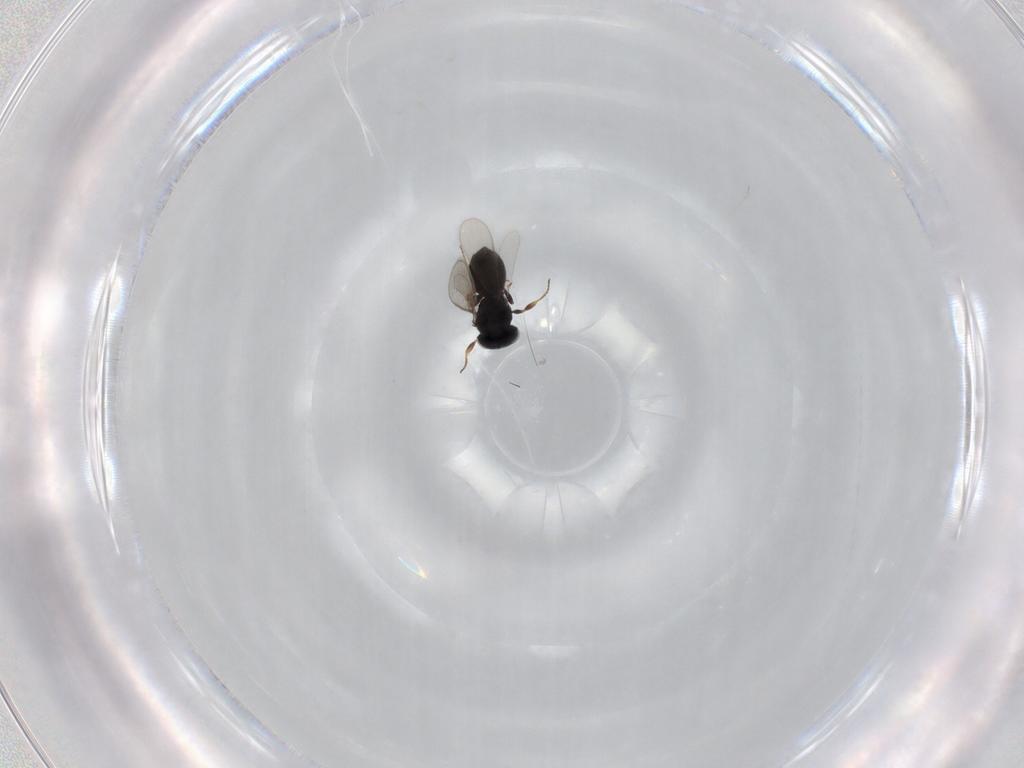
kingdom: Animalia
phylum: Arthropoda
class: Insecta
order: Hymenoptera
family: Scelionidae
